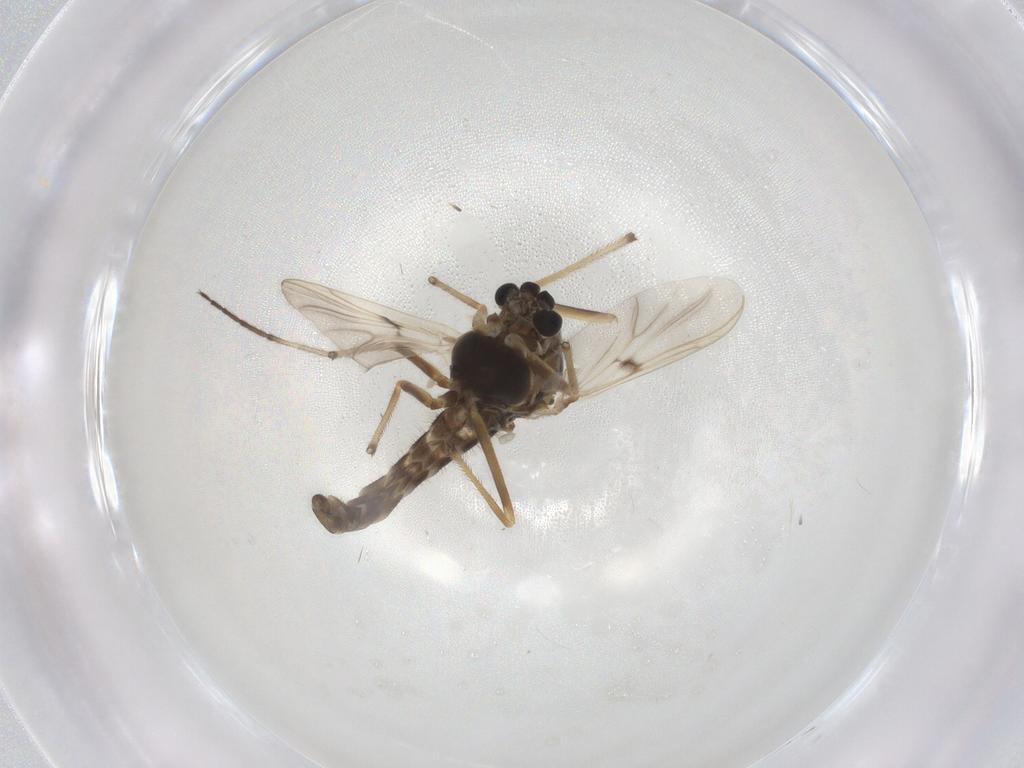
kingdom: Animalia
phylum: Arthropoda
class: Insecta
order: Diptera
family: Chironomidae
